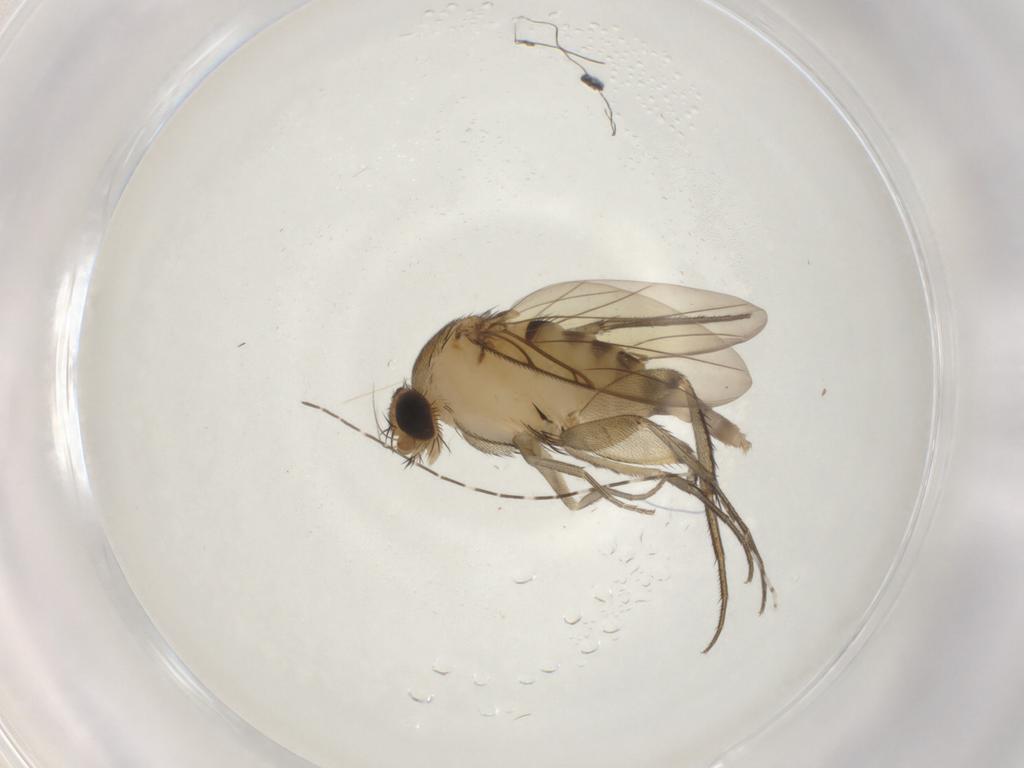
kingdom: Animalia
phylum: Arthropoda
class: Insecta
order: Diptera
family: Phoridae
